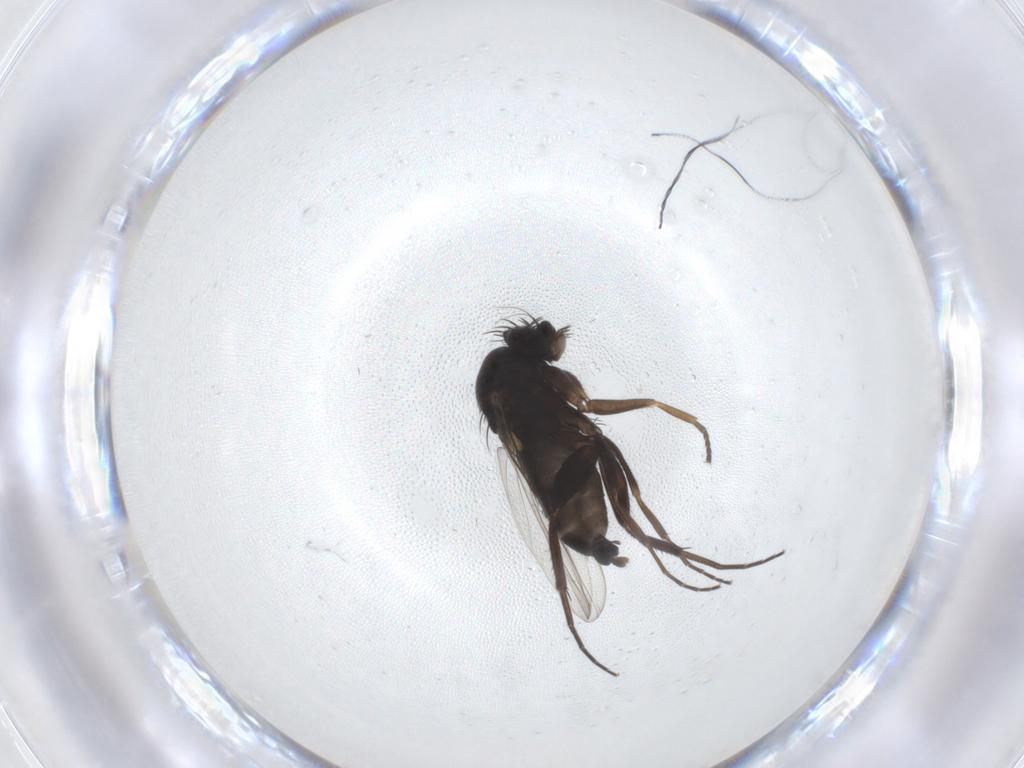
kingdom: Animalia
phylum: Arthropoda
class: Insecta
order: Diptera
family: Phoridae
